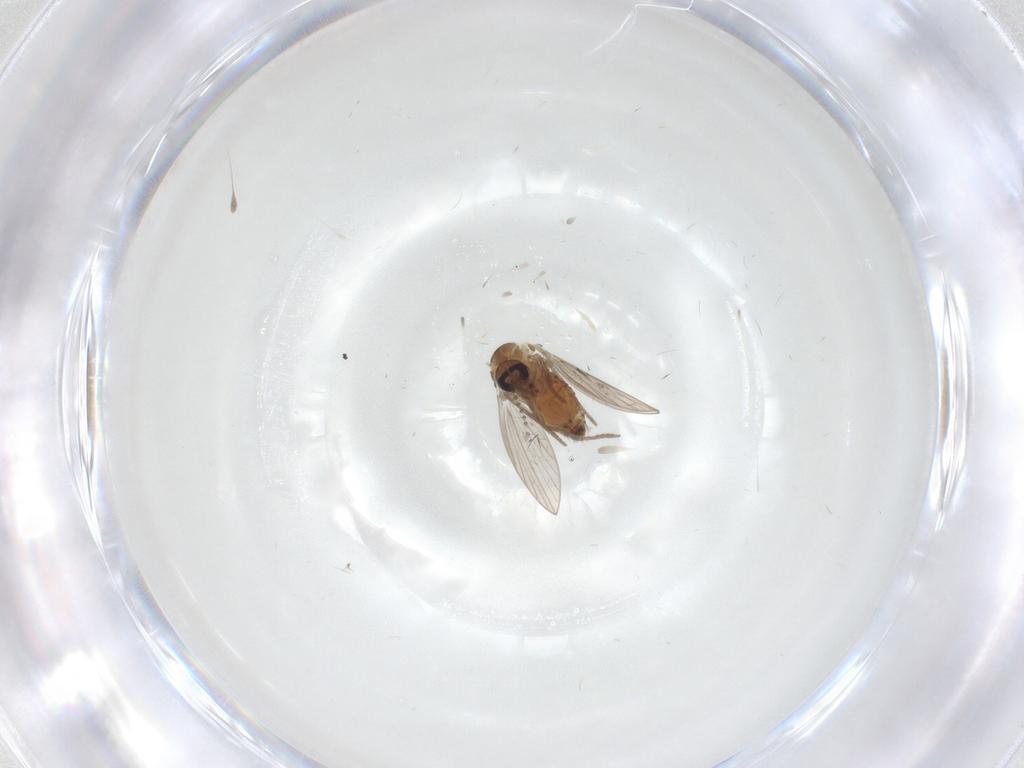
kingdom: Animalia
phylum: Arthropoda
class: Insecta
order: Diptera
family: Psychodidae
